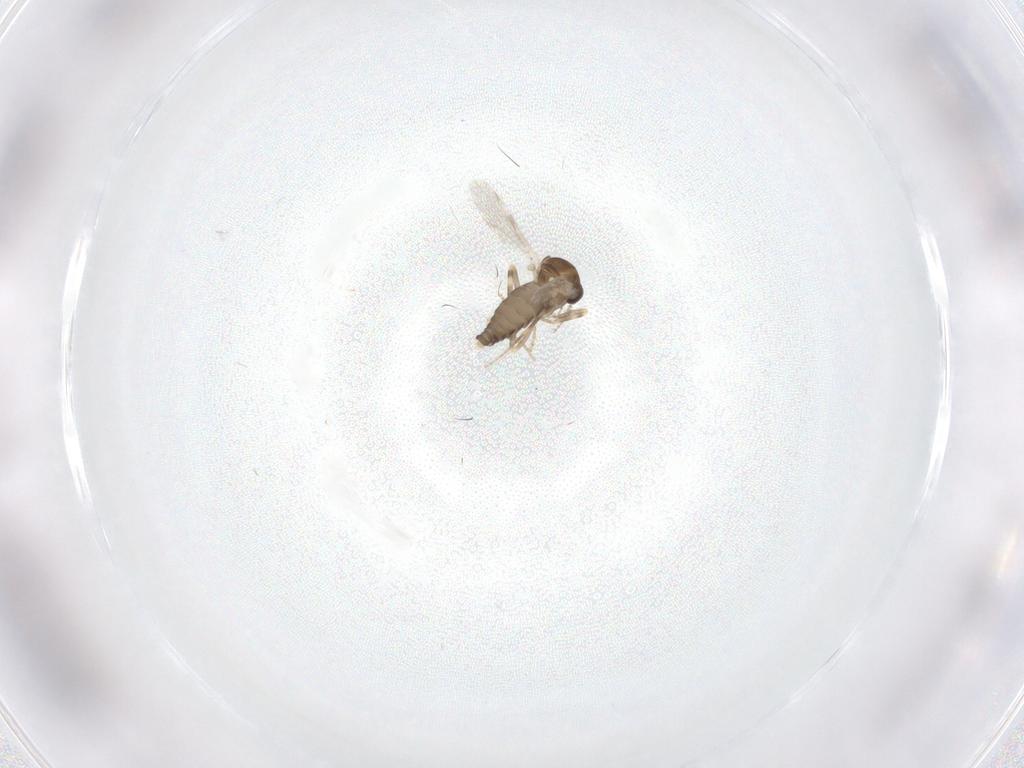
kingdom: Animalia
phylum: Arthropoda
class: Insecta
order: Diptera
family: Ceratopogonidae
